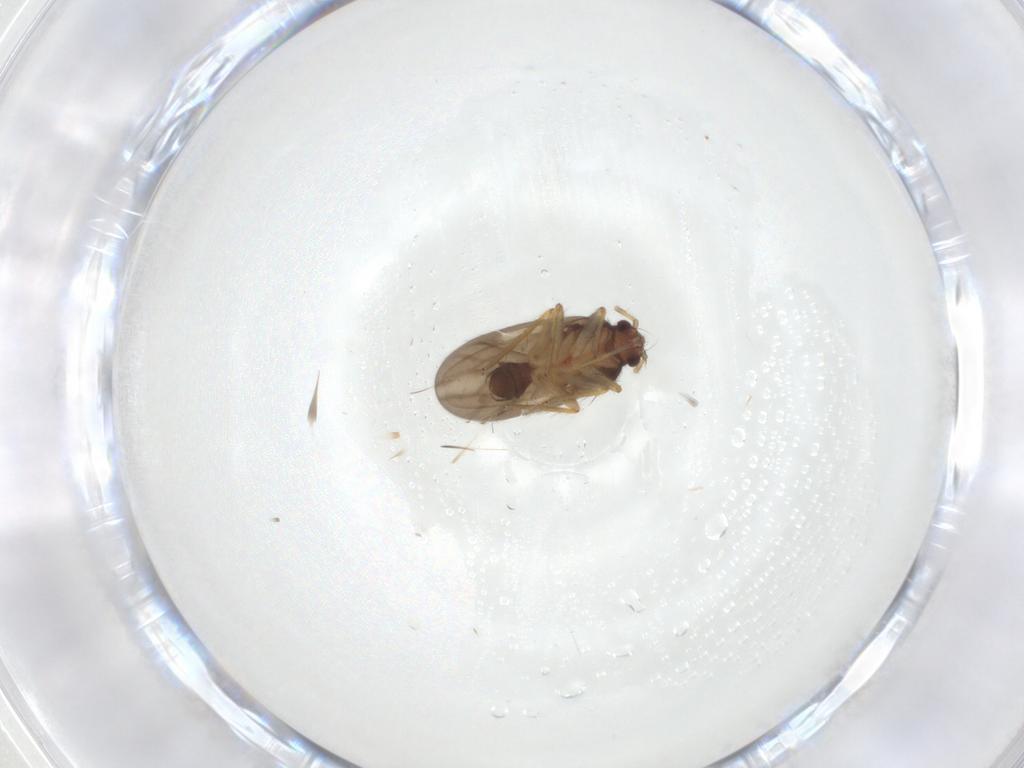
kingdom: Animalia
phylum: Arthropoda
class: Insecta
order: Hemiptera
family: Ceratocombidae
